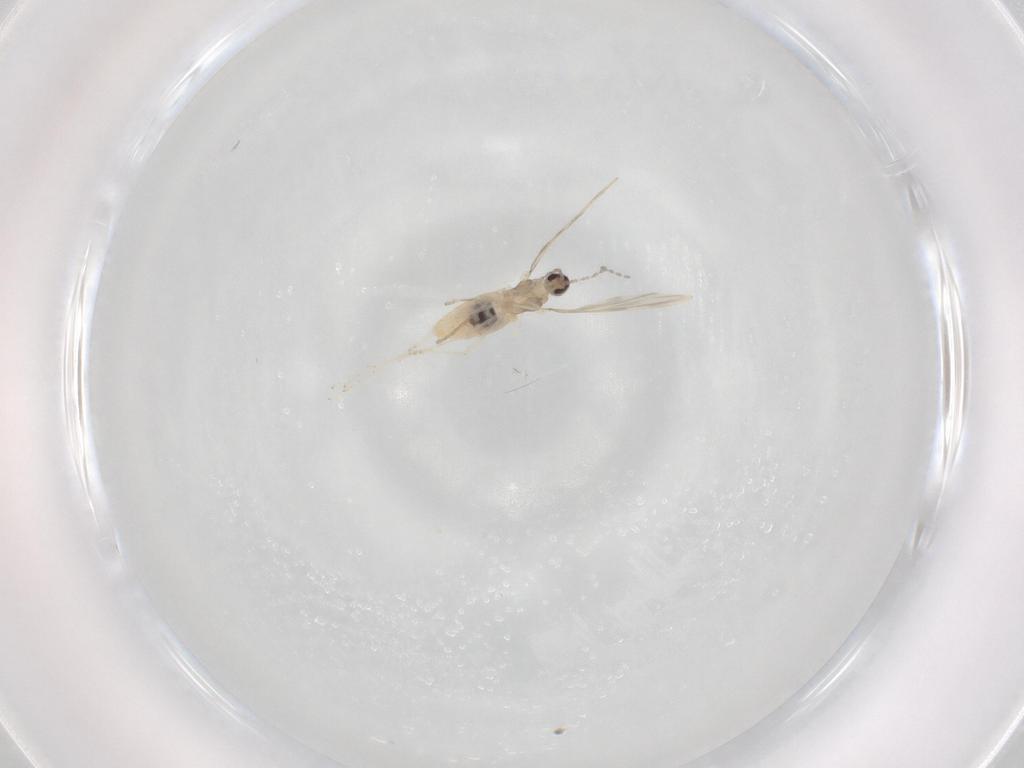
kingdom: Animalia
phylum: Arthropoda
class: Insecta
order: Diptera
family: Cecidomyiidae
